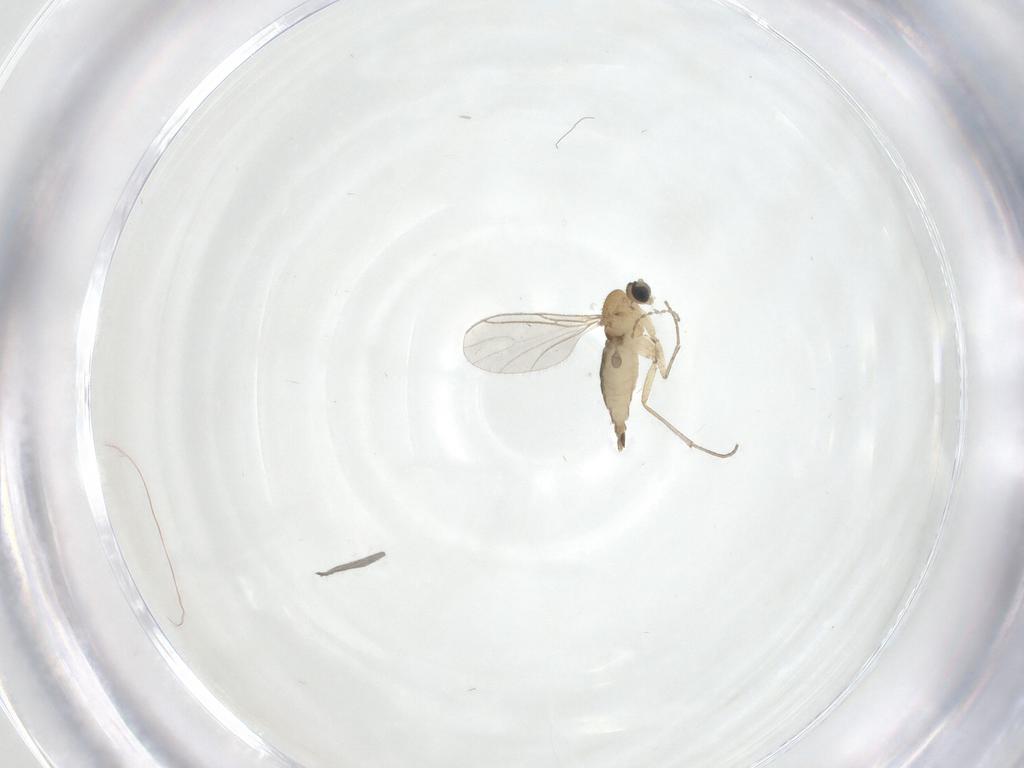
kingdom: Animalia
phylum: Arthropoda
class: Insecta
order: Diptera
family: Sciaridae
